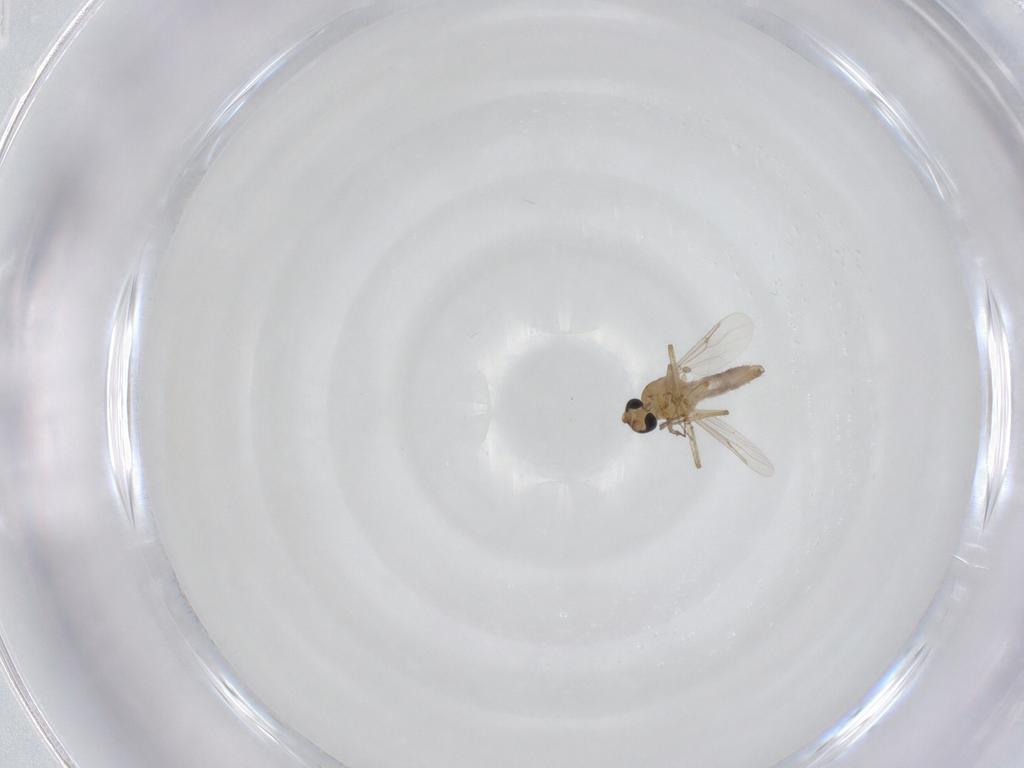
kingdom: Animalia
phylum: Arthropoda
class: Insecta
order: Diptera
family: Ceratopogonidae
